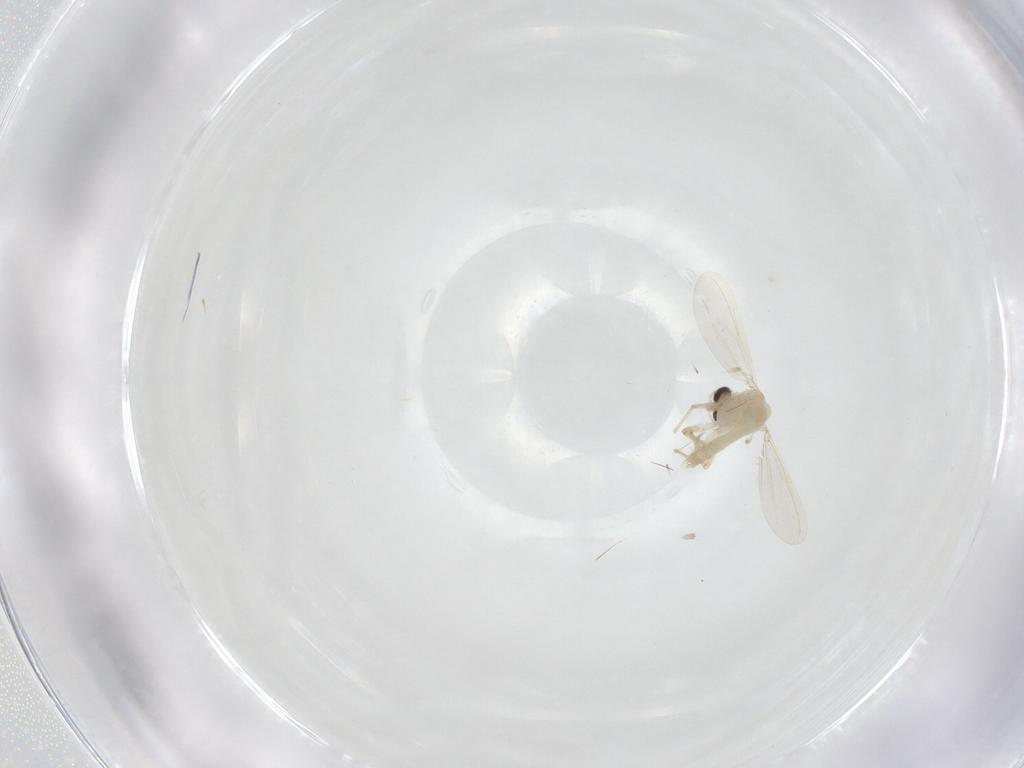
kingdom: Animalia
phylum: Arthropoda
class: Insecta
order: Diptera
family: Chironomidae
